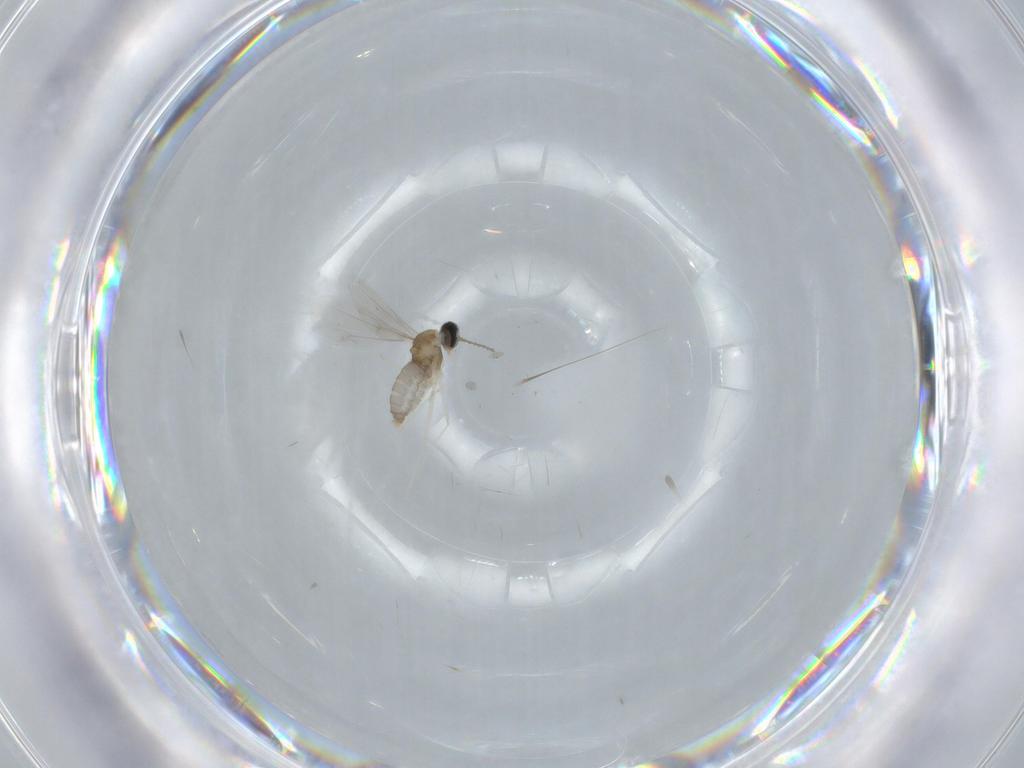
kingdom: Animalia
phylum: Arthropoda
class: Insecta
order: Diptera
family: Cecidomyiidae
